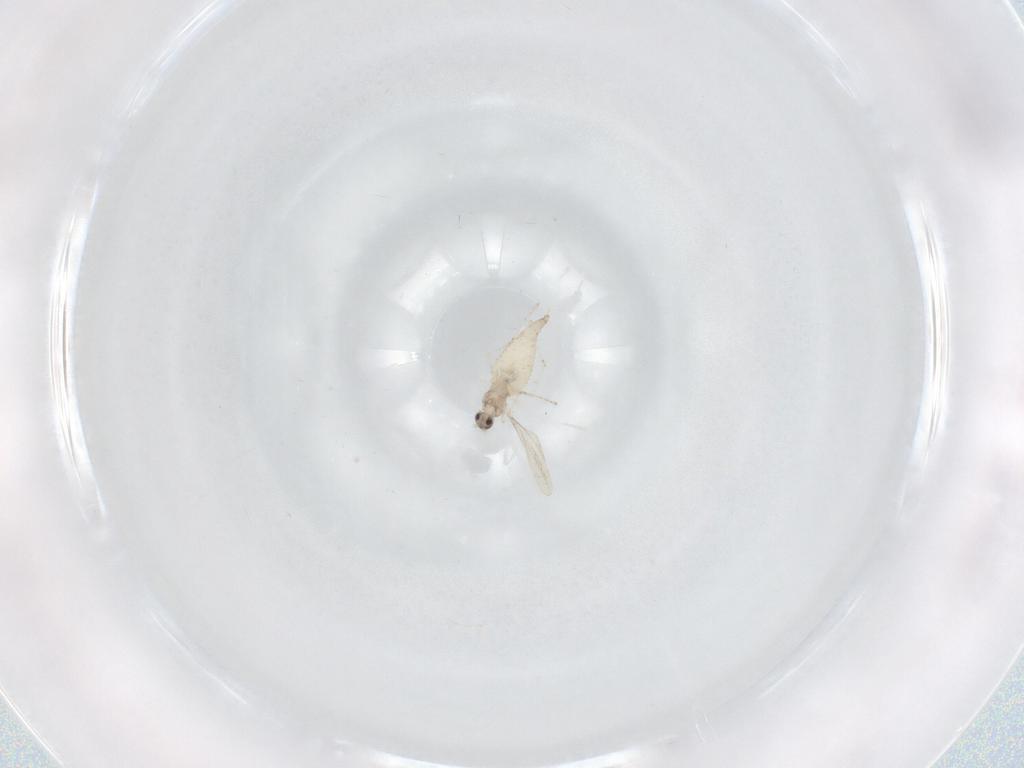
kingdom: Animalia
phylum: Arthropoda
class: Insecta
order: Diptera
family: Cecidomyiidae
